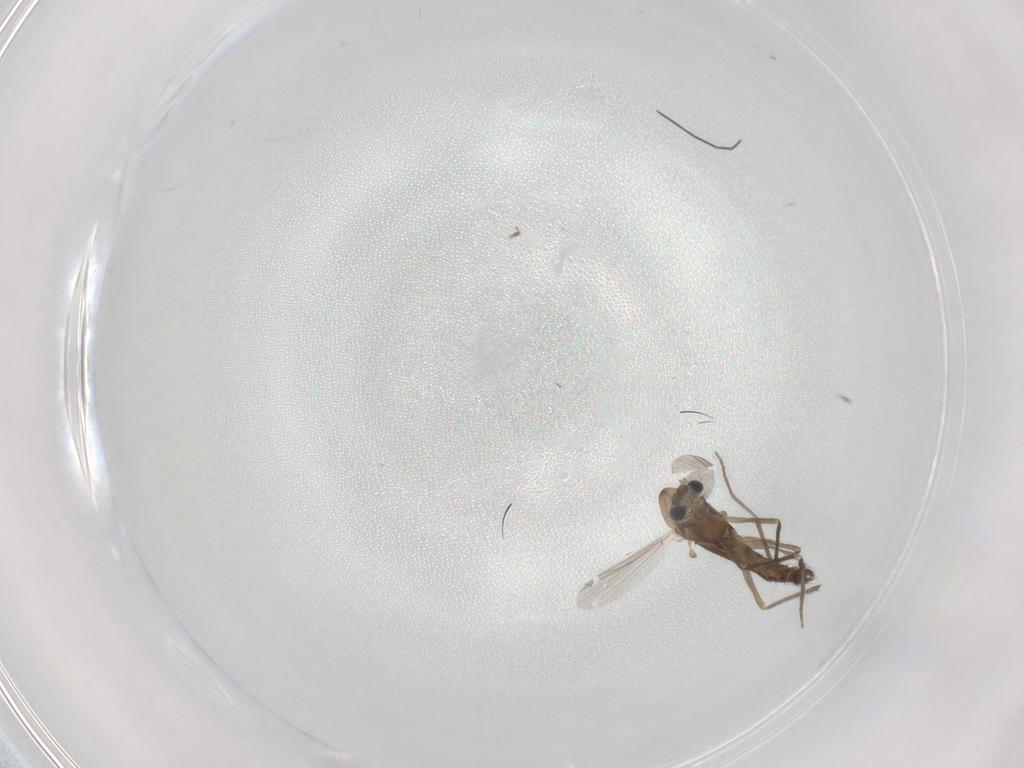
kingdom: Animalia
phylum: Arthropoda
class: Insecta
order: Diptera
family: Chironomidae
